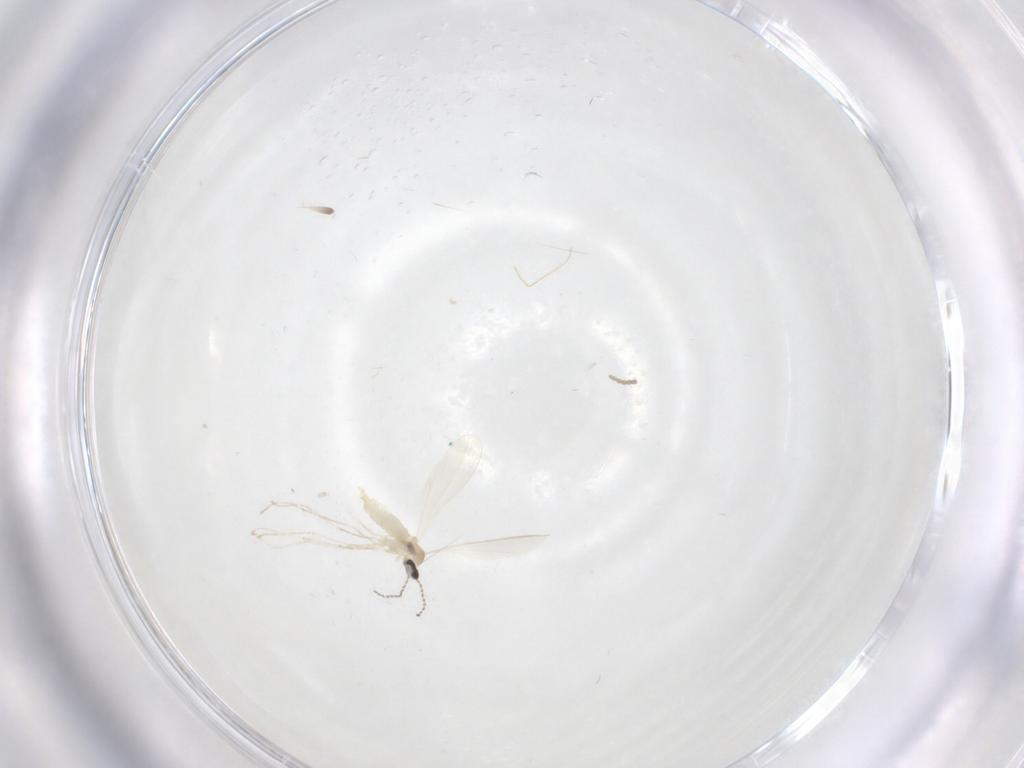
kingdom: Animalia
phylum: Arthropoda
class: Insecta
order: Diptera
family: Cecidomyiidae
